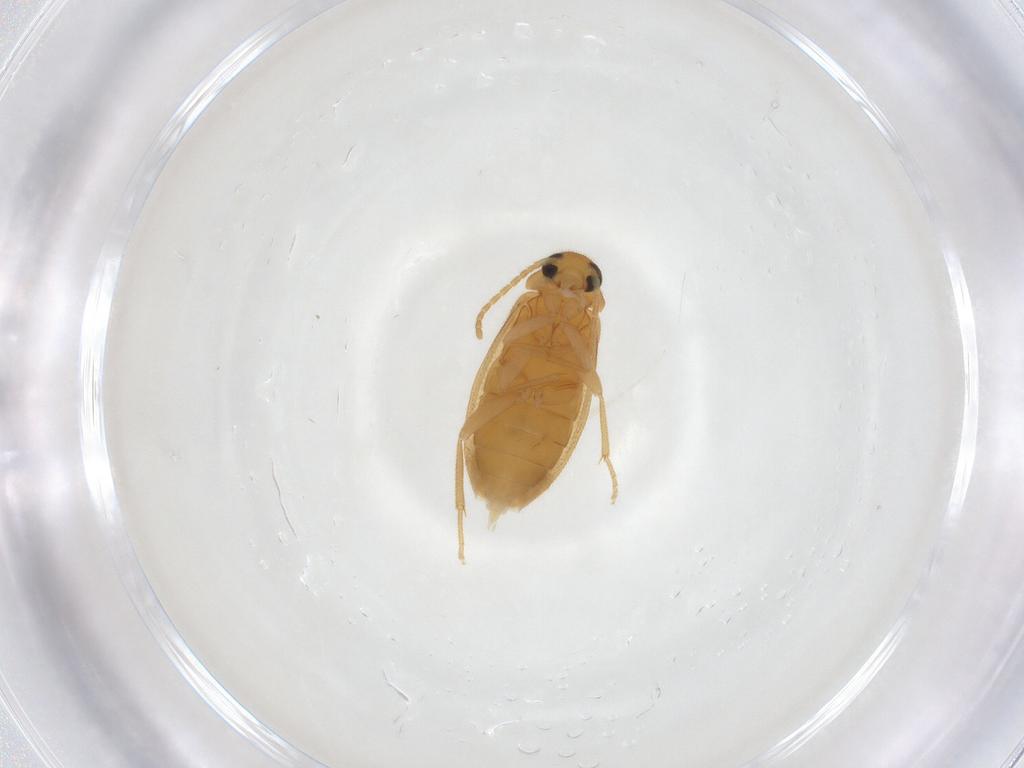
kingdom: Animalia
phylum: Arthropoda
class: Insecta
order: Coleoptera
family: Scraptiidae
